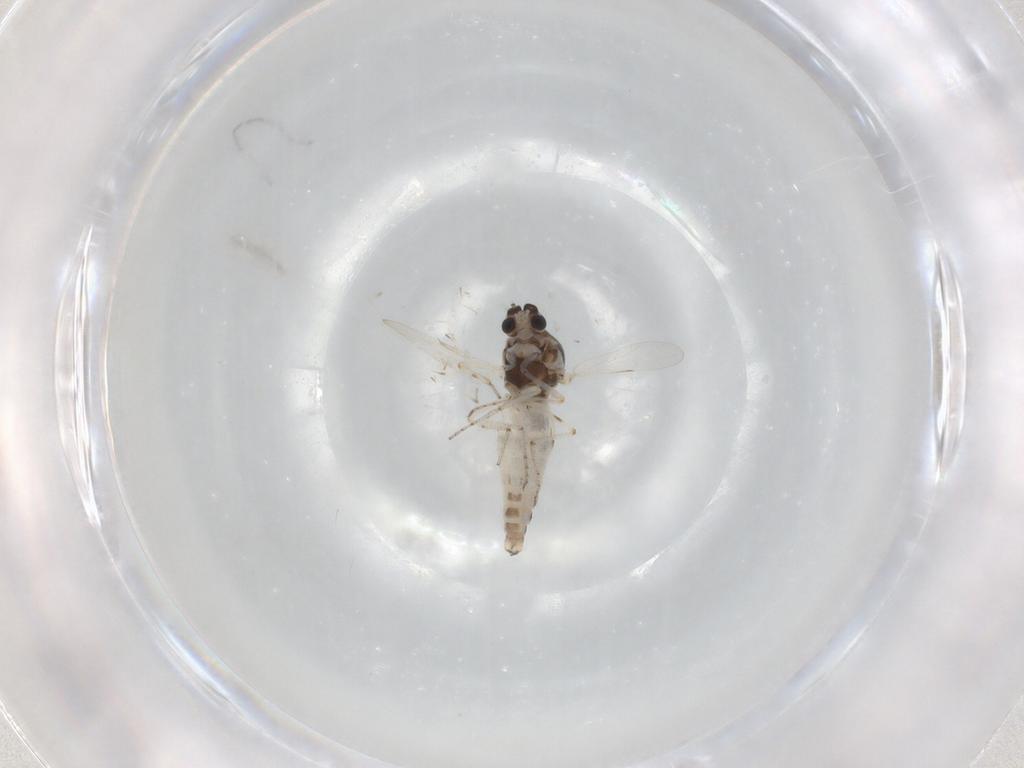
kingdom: Animalia
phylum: Arthropoda
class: Insecta
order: Diptera
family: Ceratopogonidae
